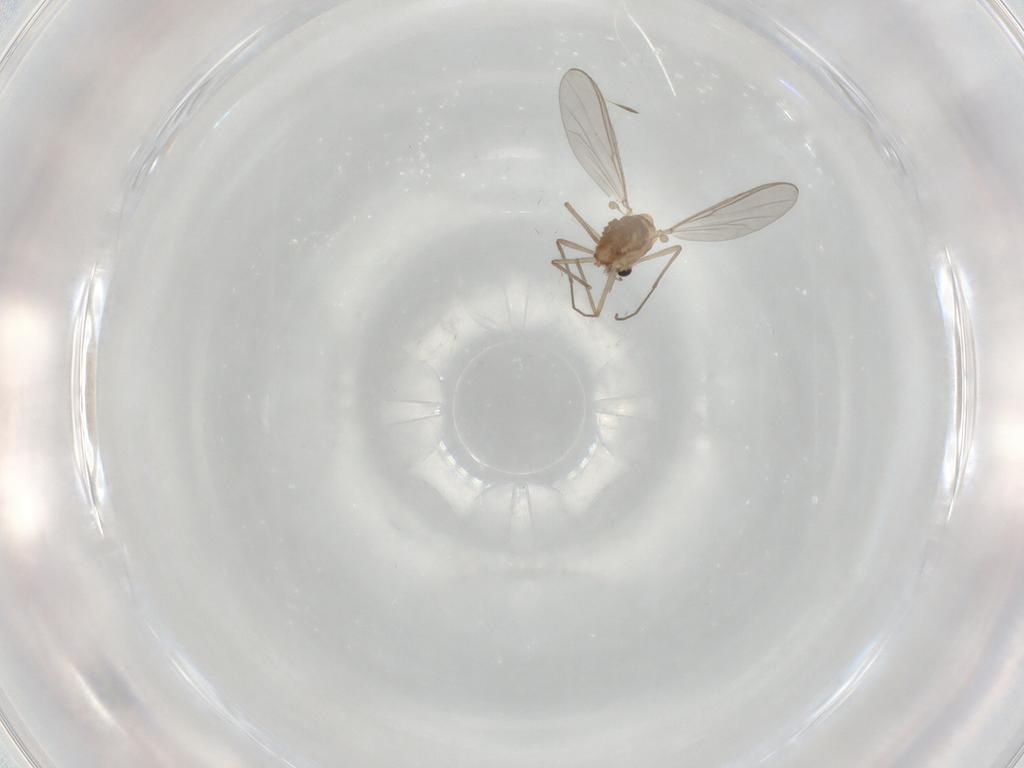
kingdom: Animalia
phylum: Arthropoda
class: Insecta
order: Diptera
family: Chironomidae
